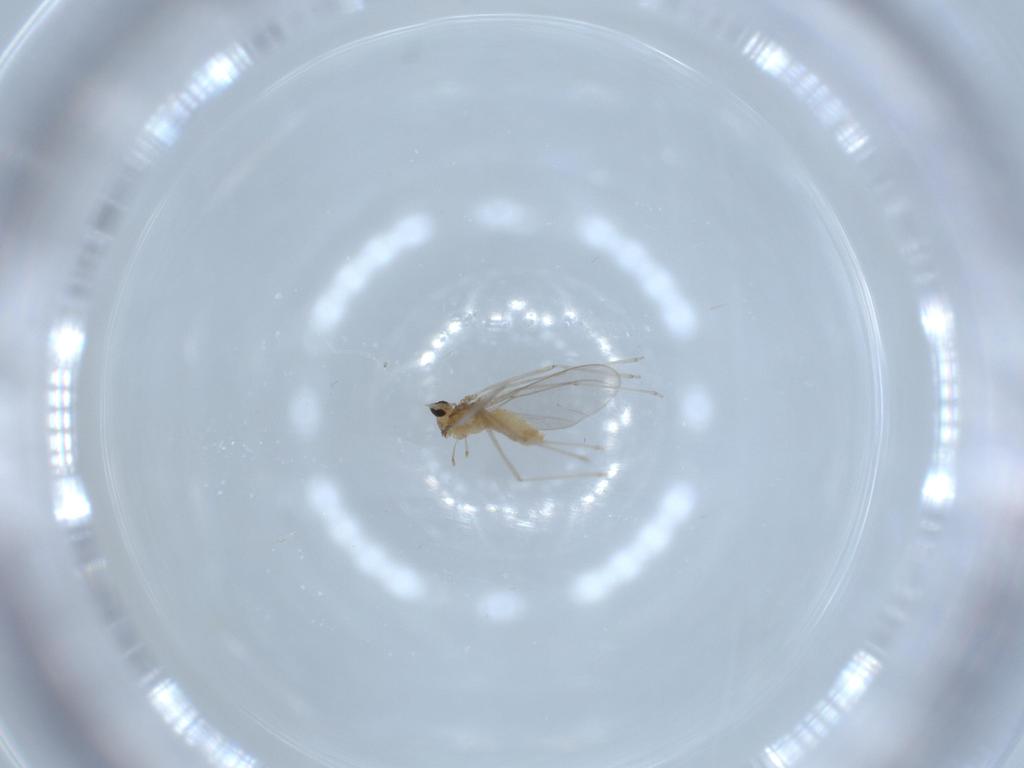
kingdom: Animalia
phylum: Arthropoda
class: Insecta
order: Diptera
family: Cecidomyiidae
